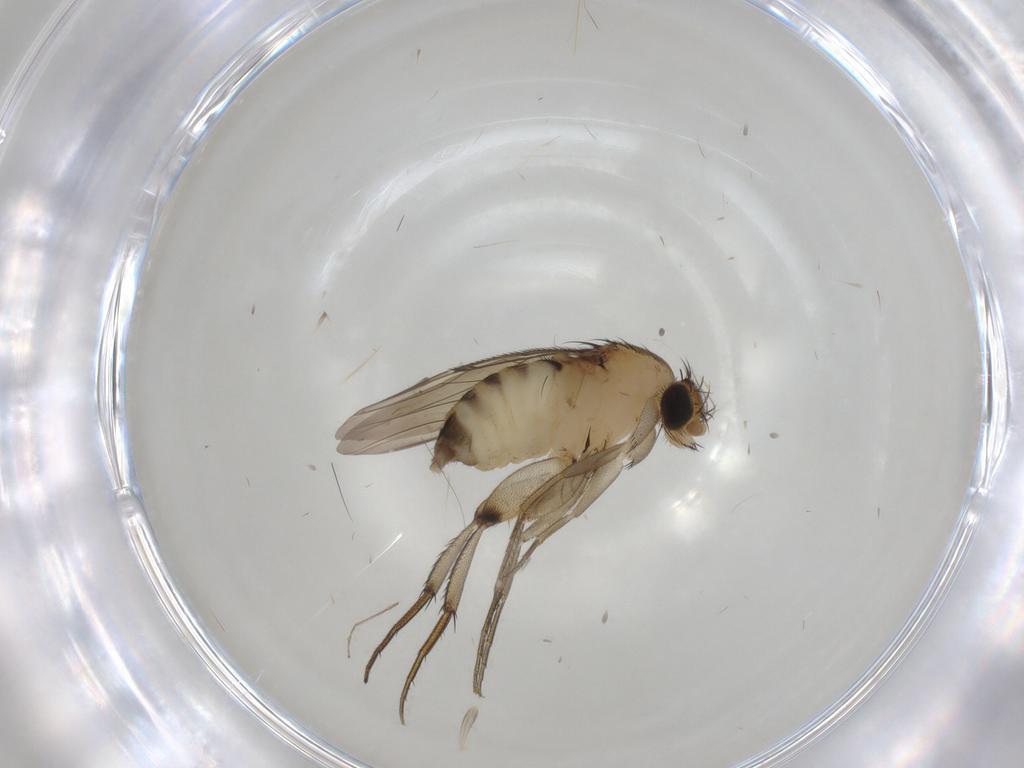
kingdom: Animalia
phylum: Arthropoda
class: Insecta
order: Diptera
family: Phoridae
